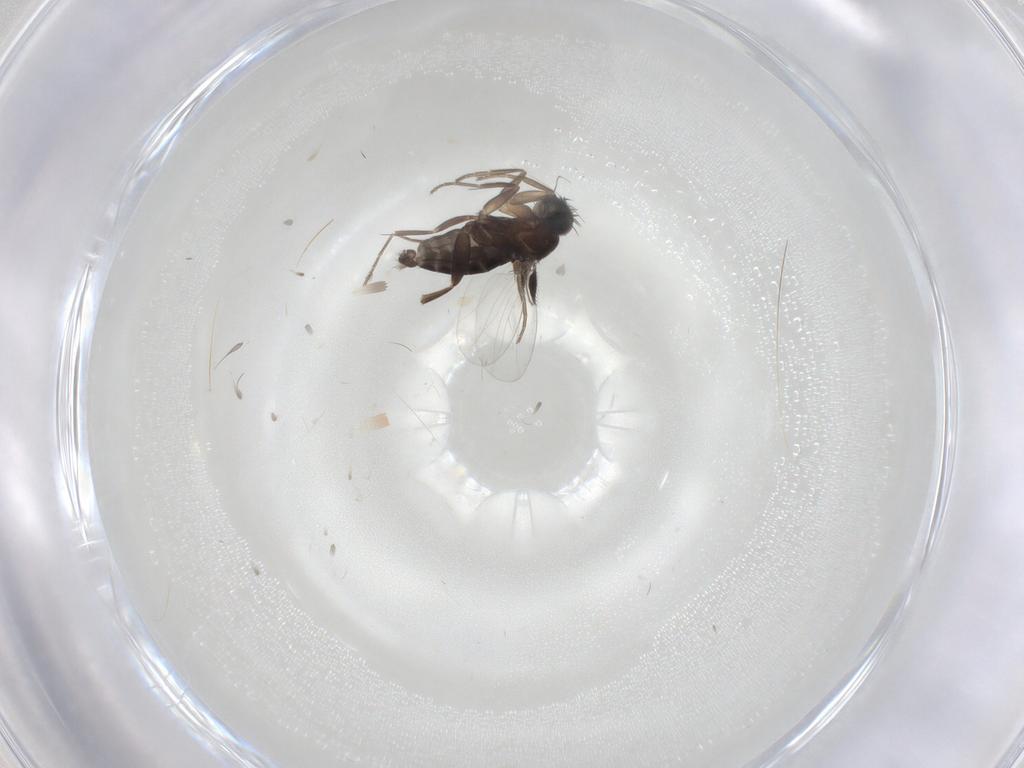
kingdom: Animalia
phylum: Arthropoda
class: Insecta
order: Diptera
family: Phoridae
